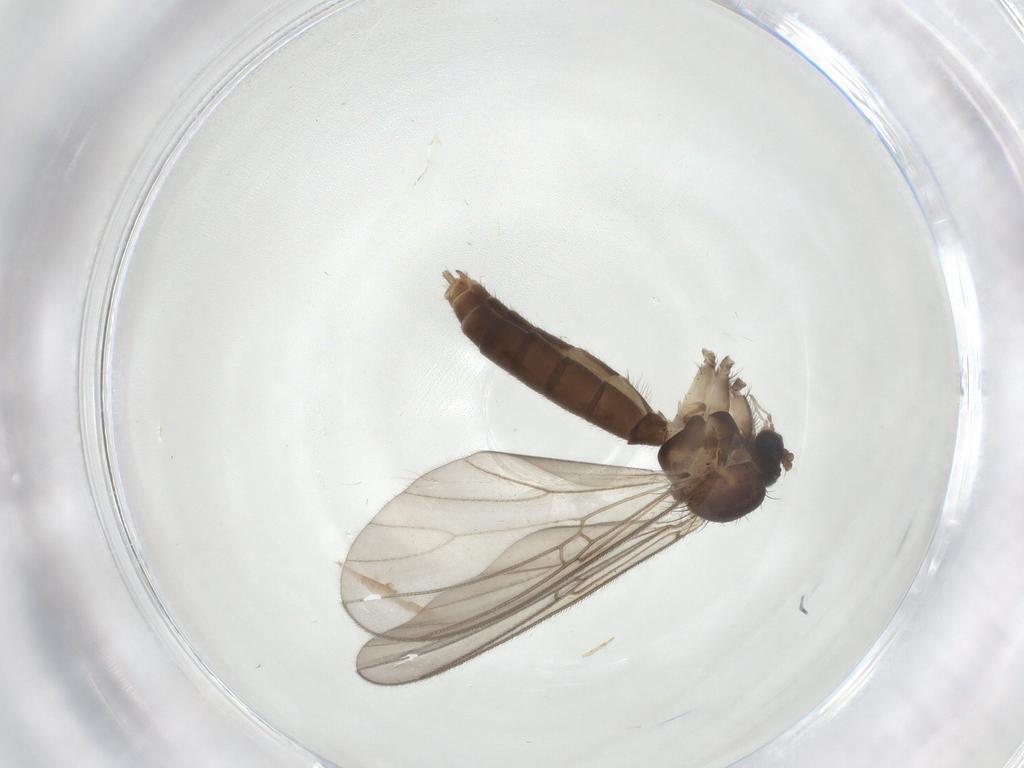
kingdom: Animalia
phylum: Arthropoda
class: Insecta
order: Diptera
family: Mycetophilidae
